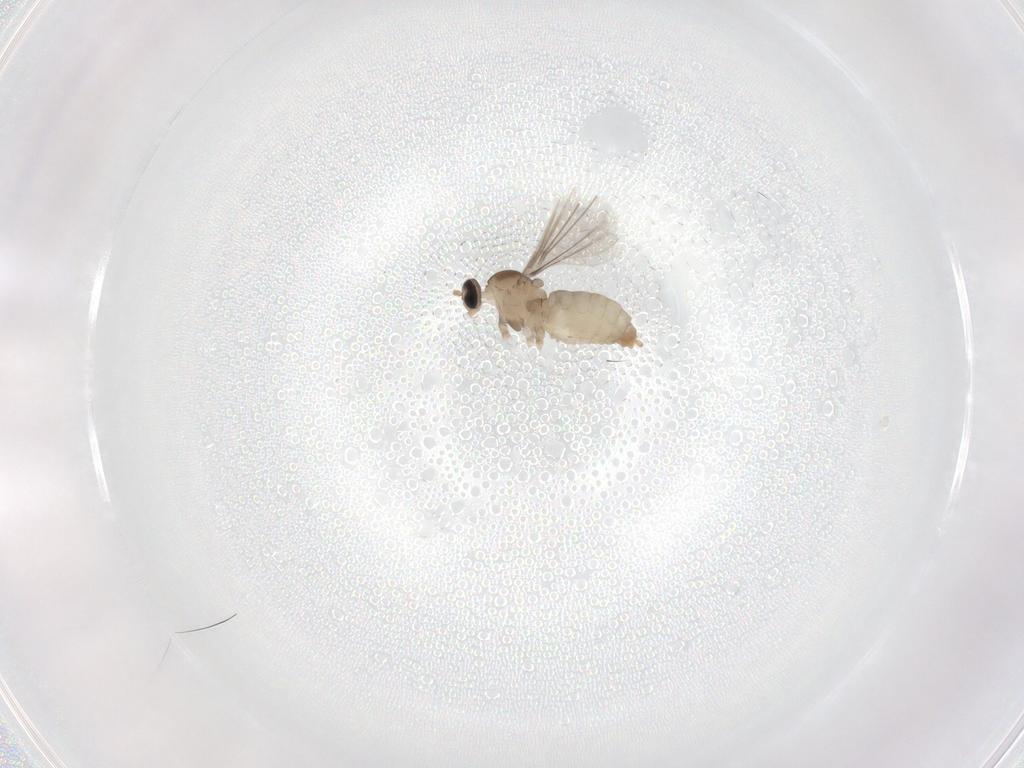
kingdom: Animalia
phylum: Arthropoda
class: Insecta
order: Diptera
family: Cecidomyiidae
